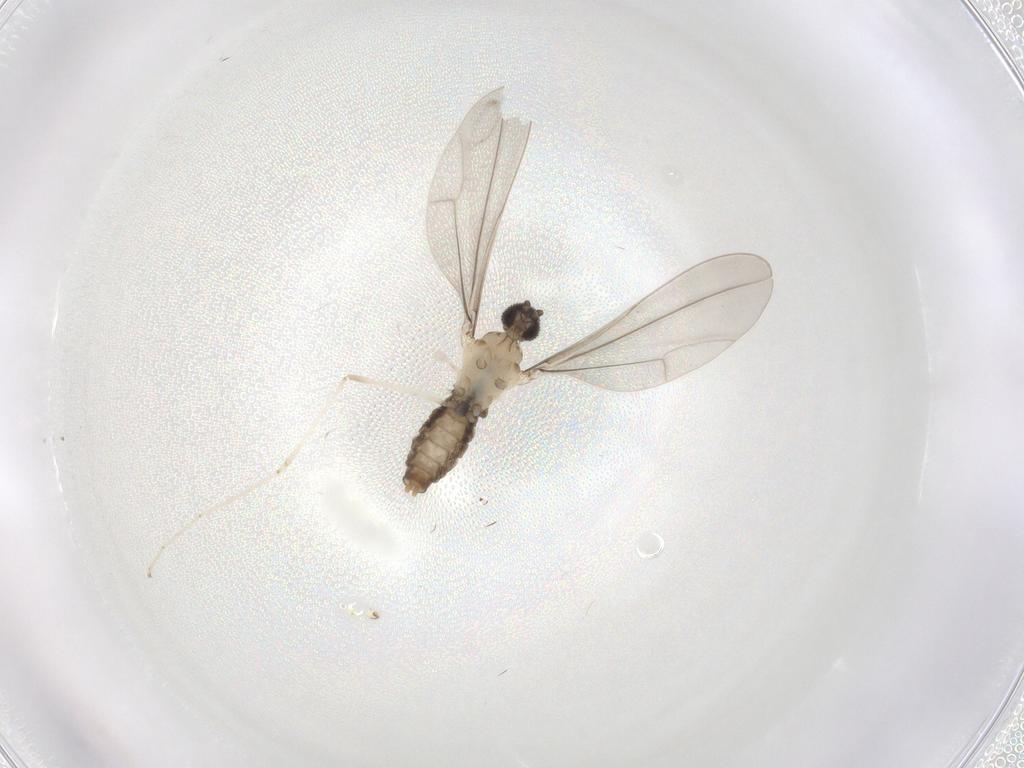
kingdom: Animalia
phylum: Arthropoda
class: Insecta
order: Diptera
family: Cecidomyiidae
